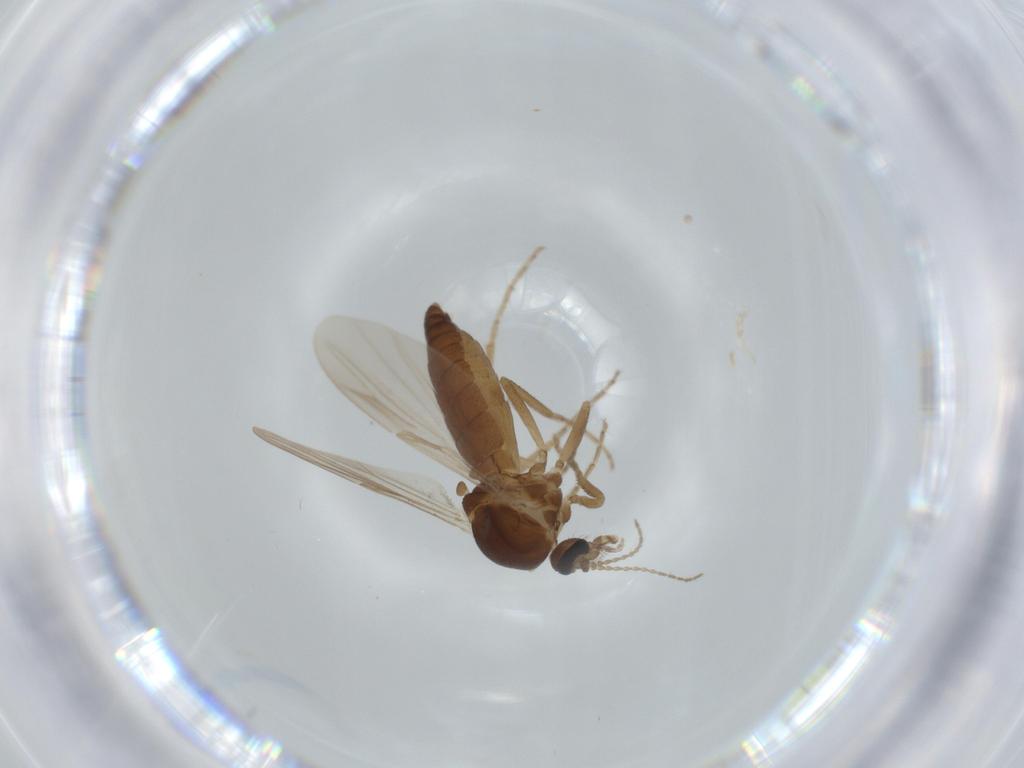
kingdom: Animalia
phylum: Arthropoda
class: Insecta
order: Diptera
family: Ceratopogonidae
